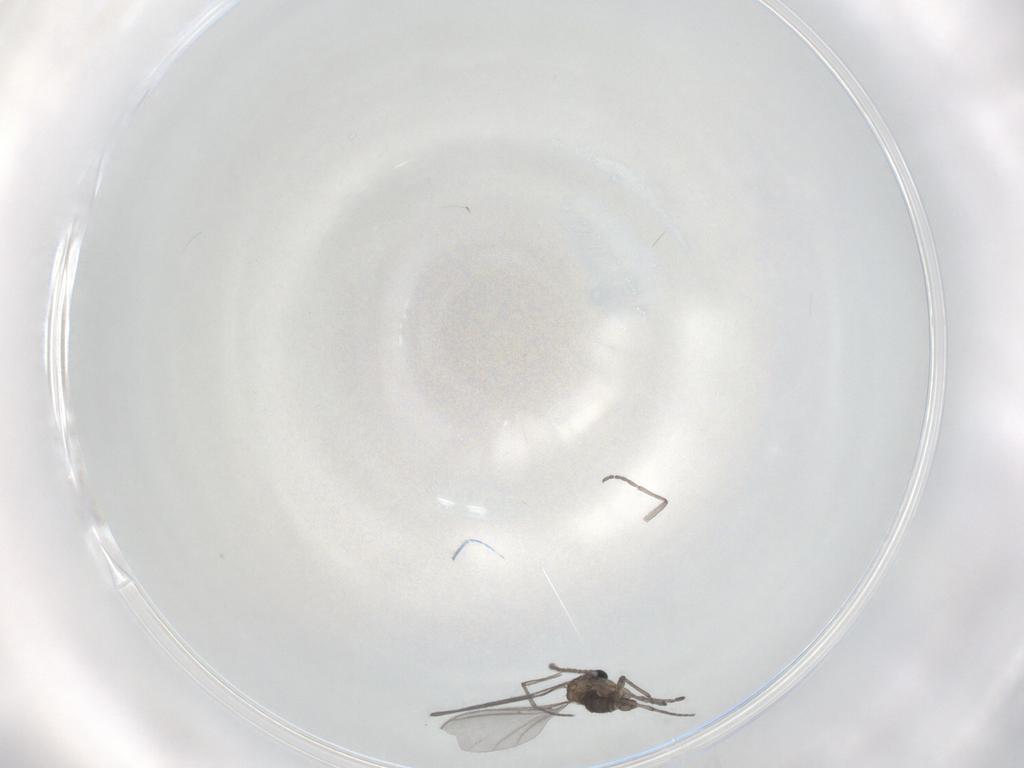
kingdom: Animalia
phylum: Arthropoda
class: Insecta
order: Diptera
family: Sciaridae
